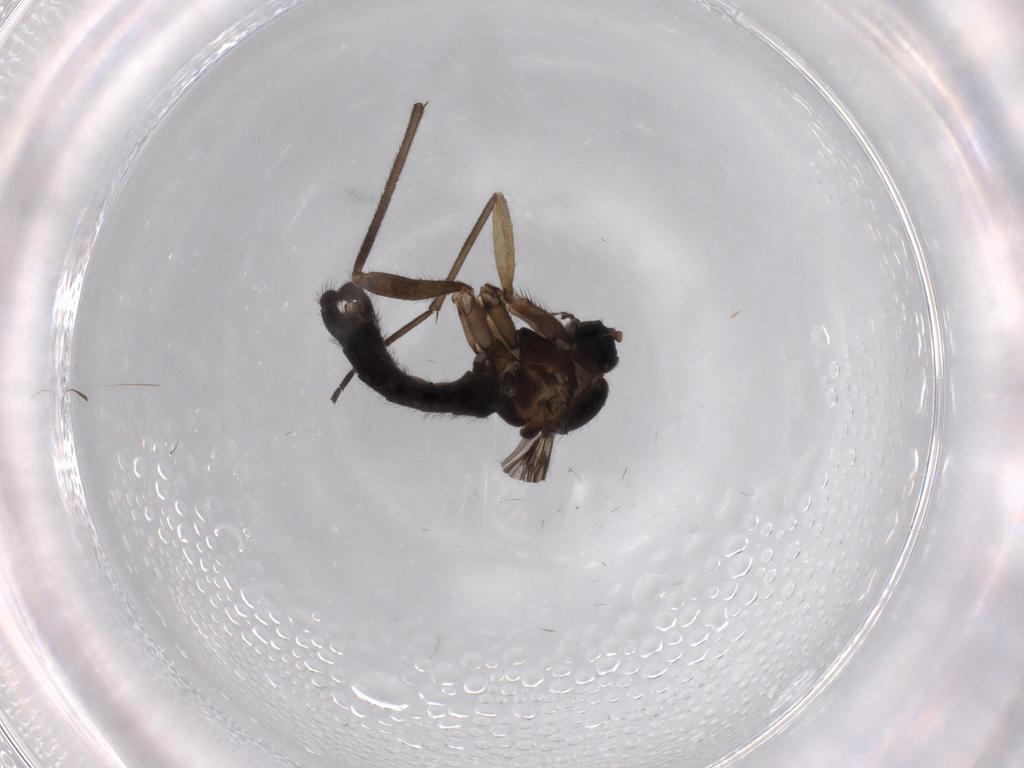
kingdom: Animalia
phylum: Arthropoda
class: Insecta
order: Diptera
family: Sciaridae
